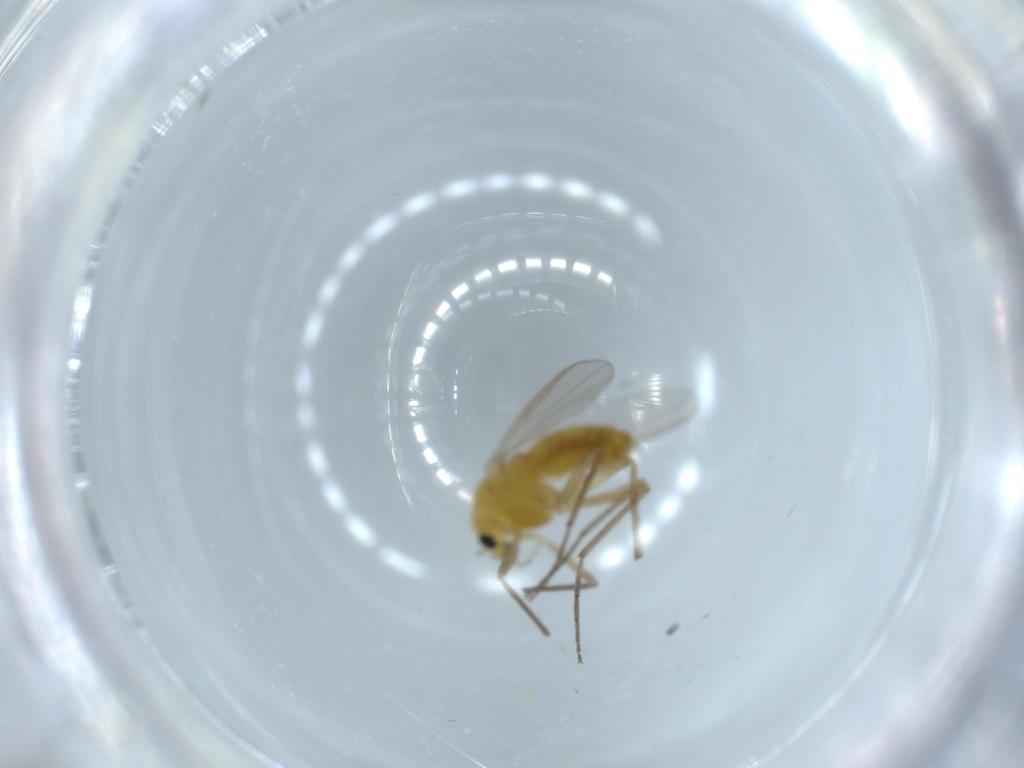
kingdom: Animalia
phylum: Arthropoda
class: Insecta
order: Diptera
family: Chironomidae
